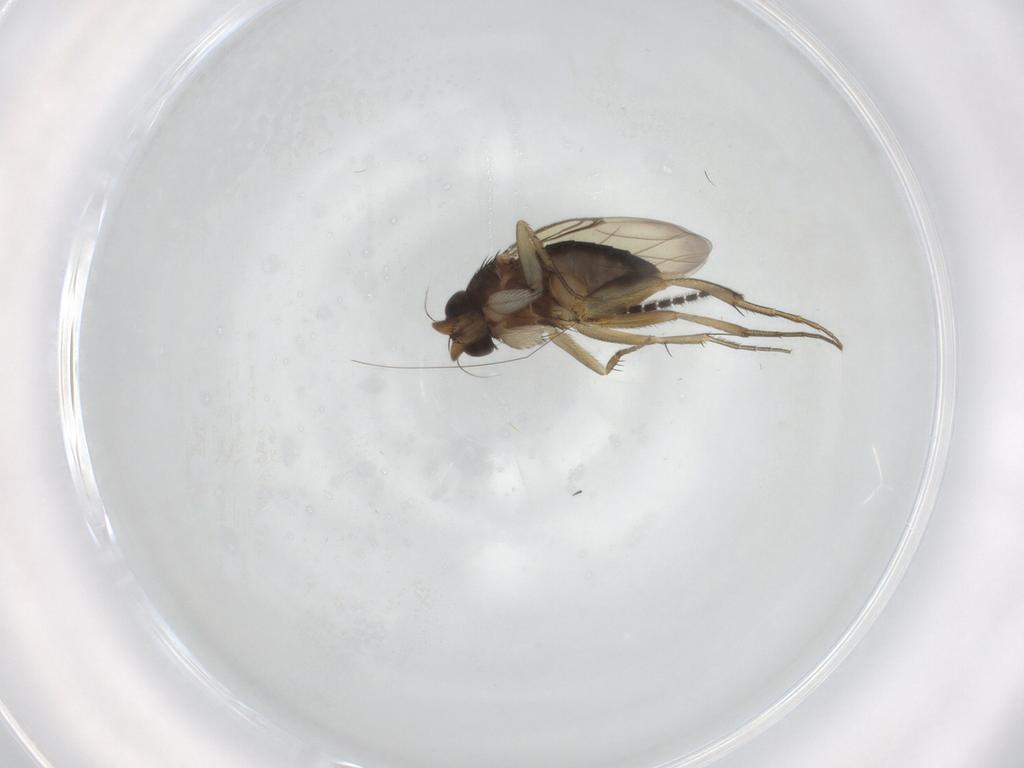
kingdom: Animalia
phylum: Arthropoda
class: Insecta
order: Diptera
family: Phoridae
